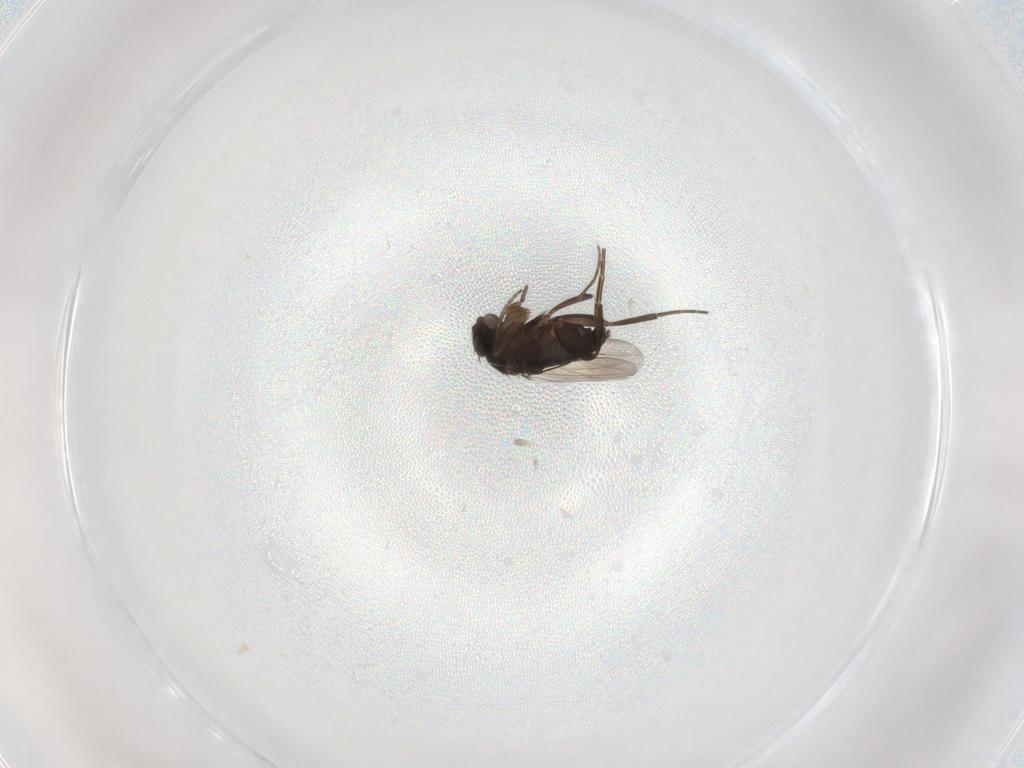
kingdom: Animalia
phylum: Arthropoda
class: Insecta
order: Diptera
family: Phoridae
